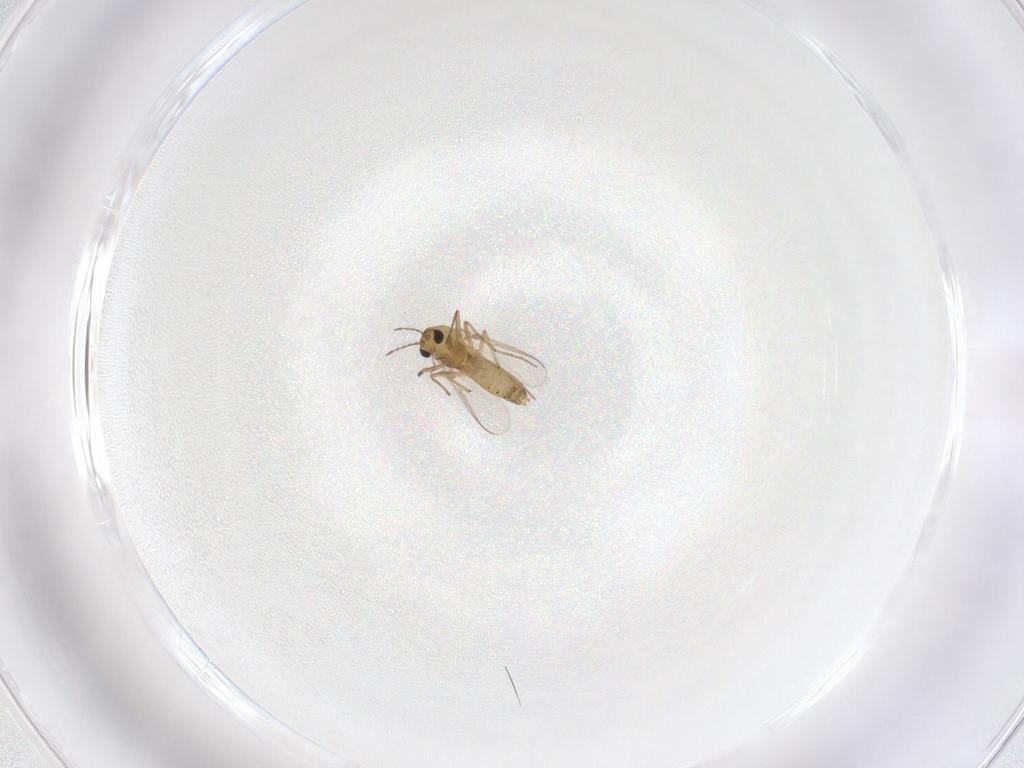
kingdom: Animalia
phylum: Arthropoda
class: Insecta
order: Diptera
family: Chironomidae
